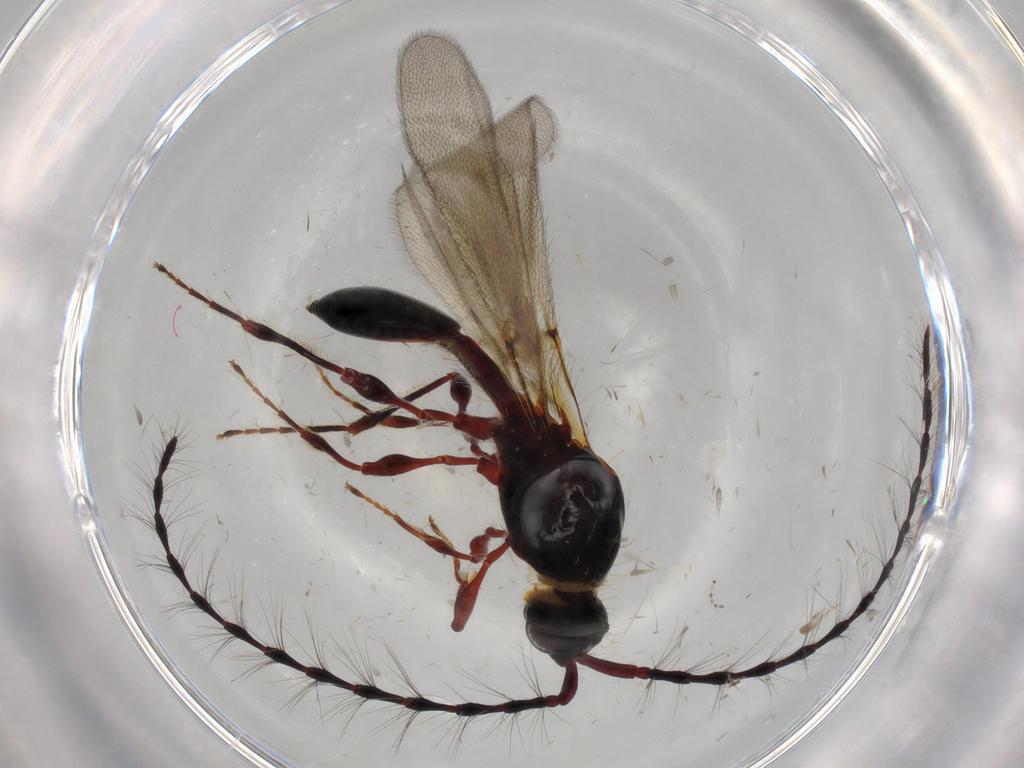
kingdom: Animalia
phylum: Arthropoda
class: Insecta
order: Hymenoptera
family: Diapriidae
